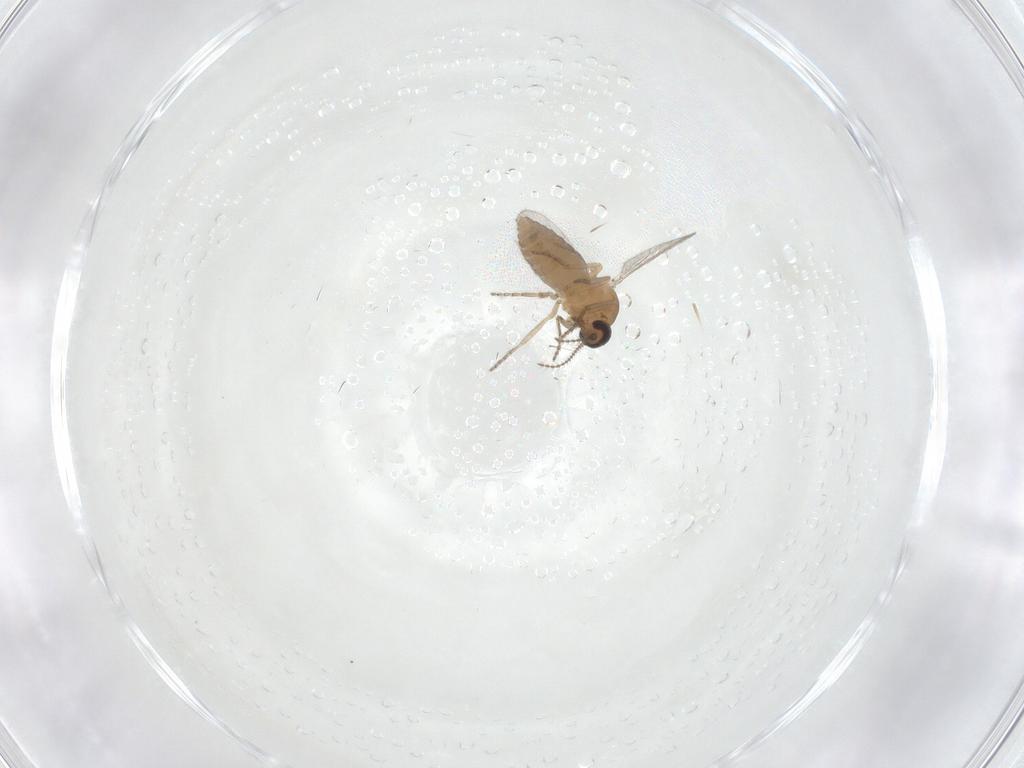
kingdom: Animalia
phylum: Arthropoda
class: Insecta
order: Diptera
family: Ceratopogonidae
